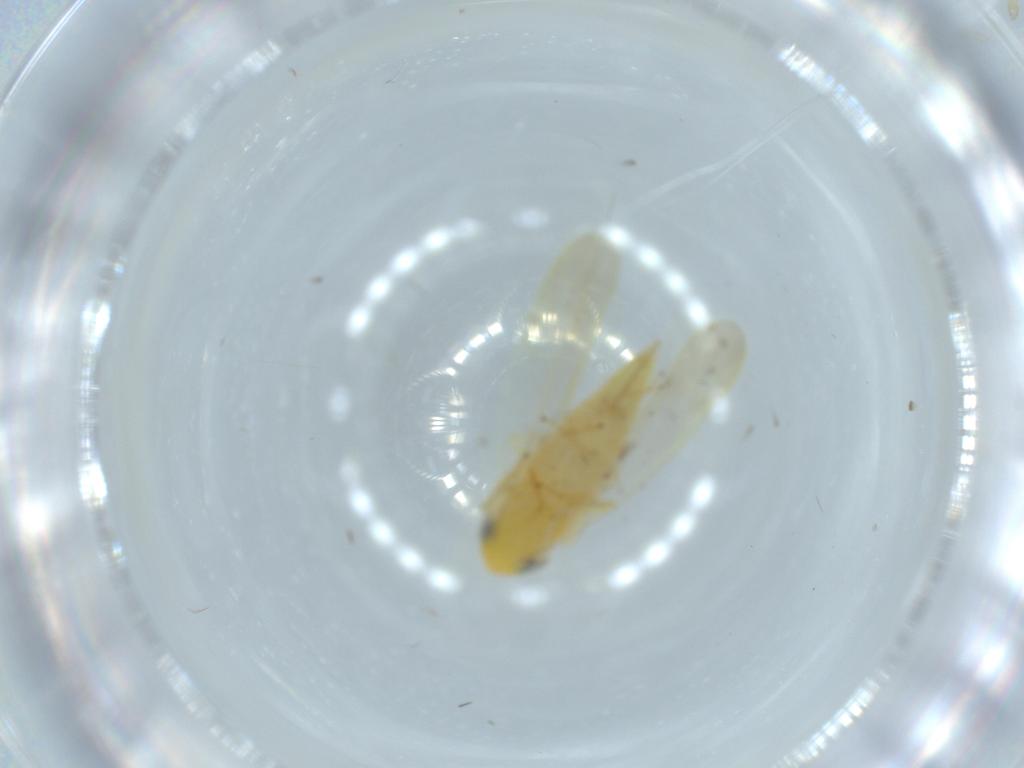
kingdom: Animalia
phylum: Arthropoda
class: Insecta
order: Hemiptera
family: Cicadellidae
